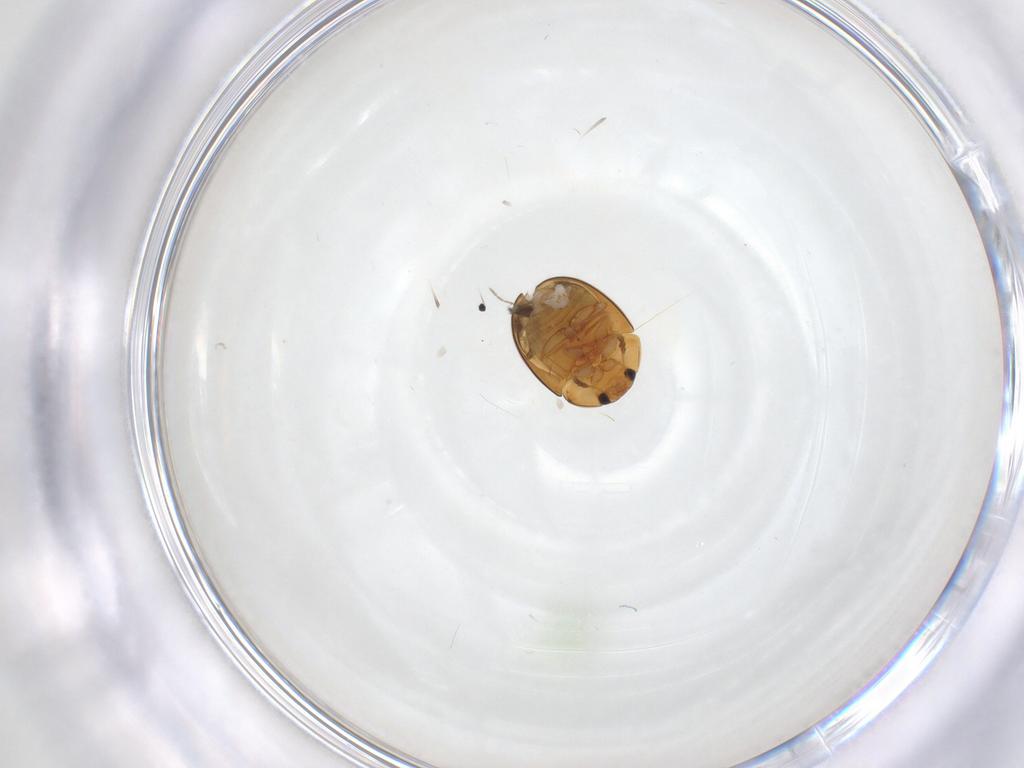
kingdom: Animalia
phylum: Arthropoda
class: Insecta
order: Coleoptera
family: Phalacridae
